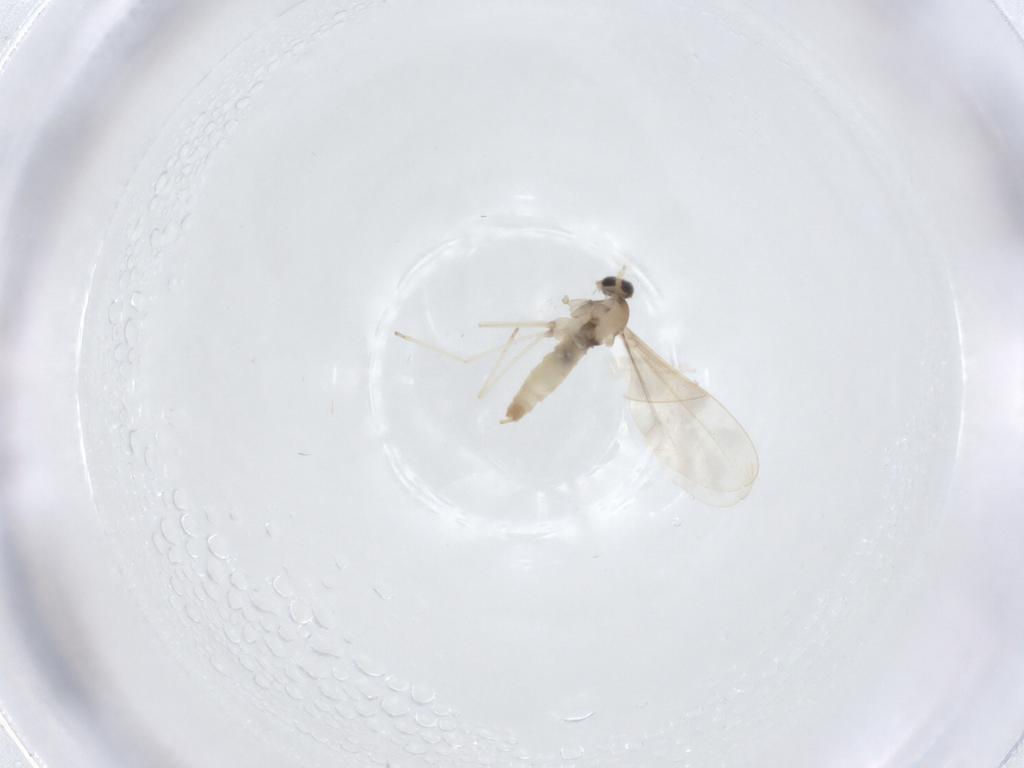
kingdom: Animalia
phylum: Arthropoda
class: Insecta
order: Diptera
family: Cecidomyiidae
